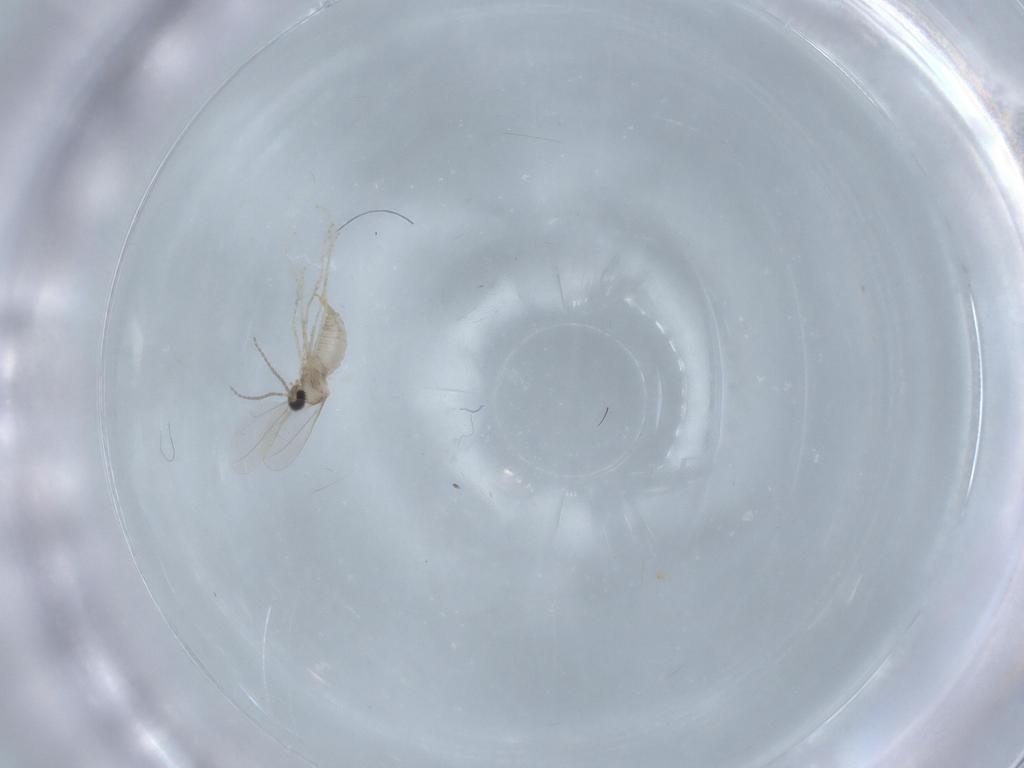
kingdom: Animalia
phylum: Arthropoda
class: Insecta
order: Diptera
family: Cecidomyiidae
